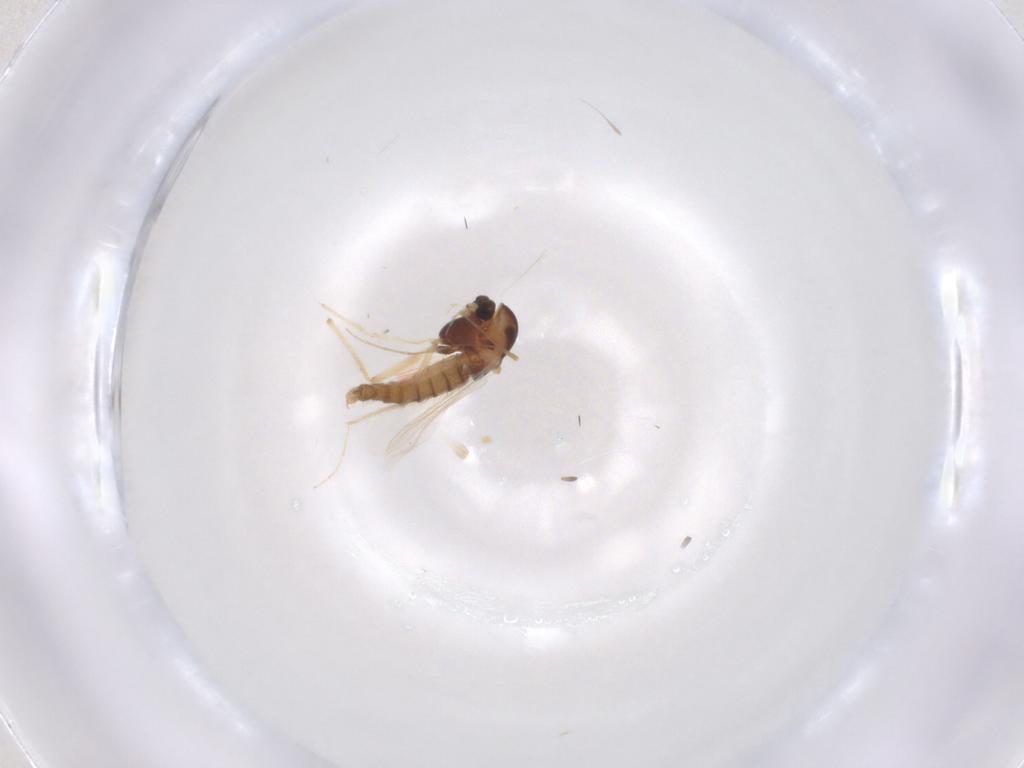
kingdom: Animalia
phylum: Arthropoda
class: Insecta
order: Diptera
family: Chironomidae
